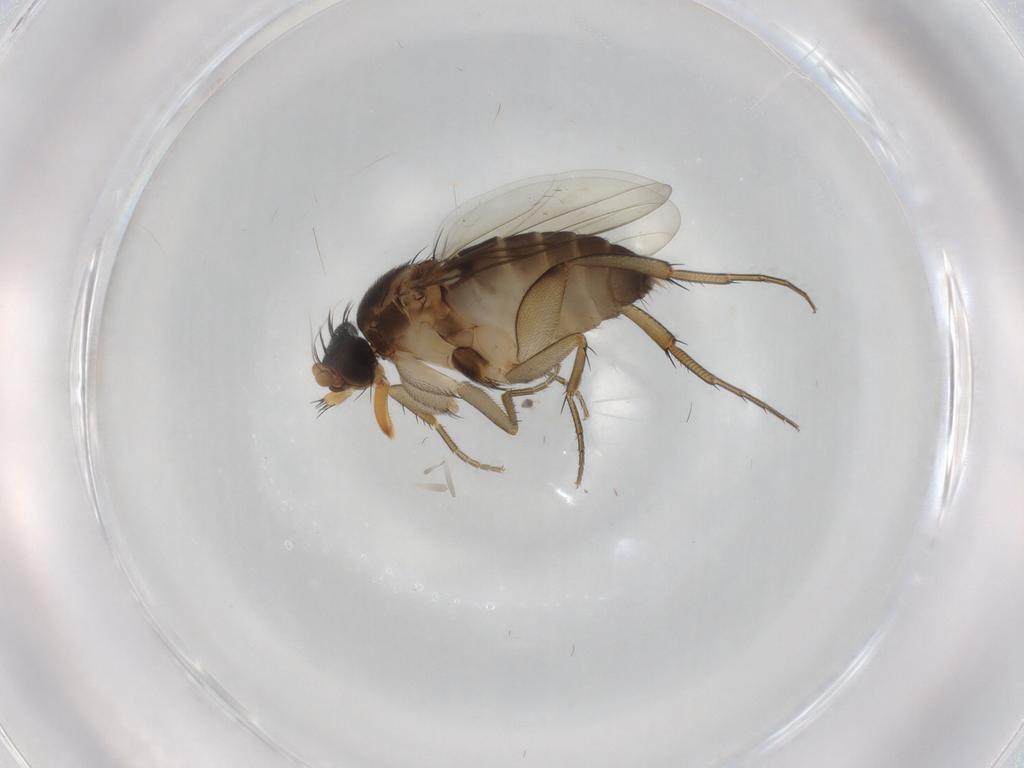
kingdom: Animalia
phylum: Arthropoda
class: Insecta
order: Diptera
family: Phoridae
